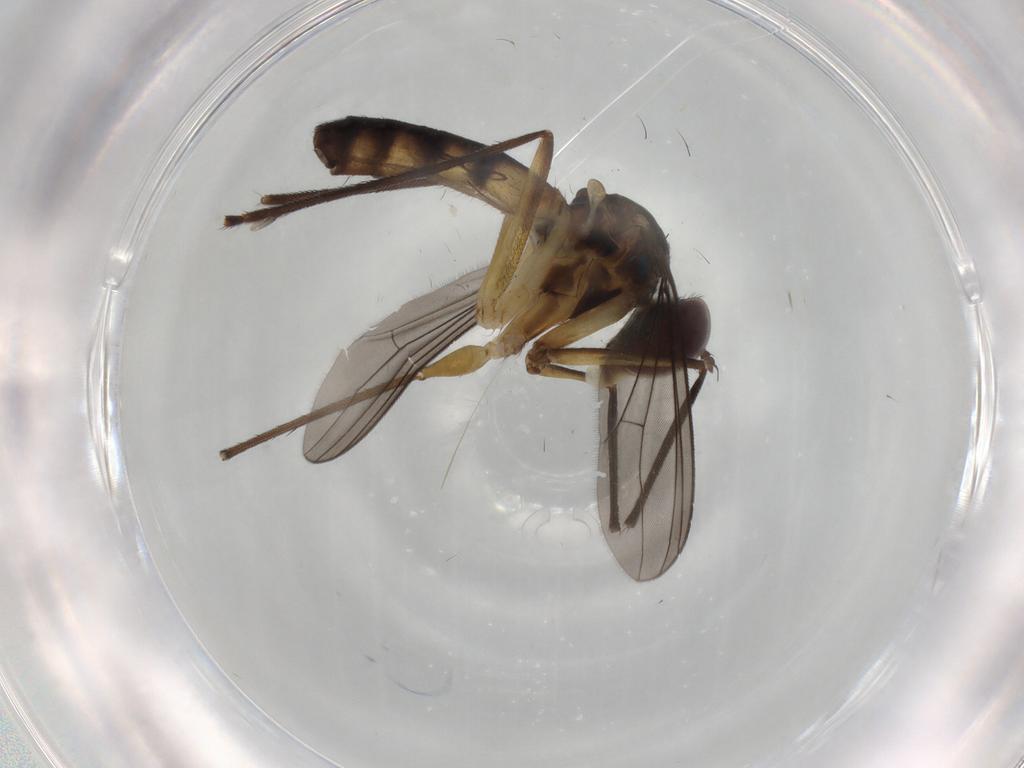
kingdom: Animalia
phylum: Arthropoda
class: Insecta
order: Diptera
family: Dolichopodidae
